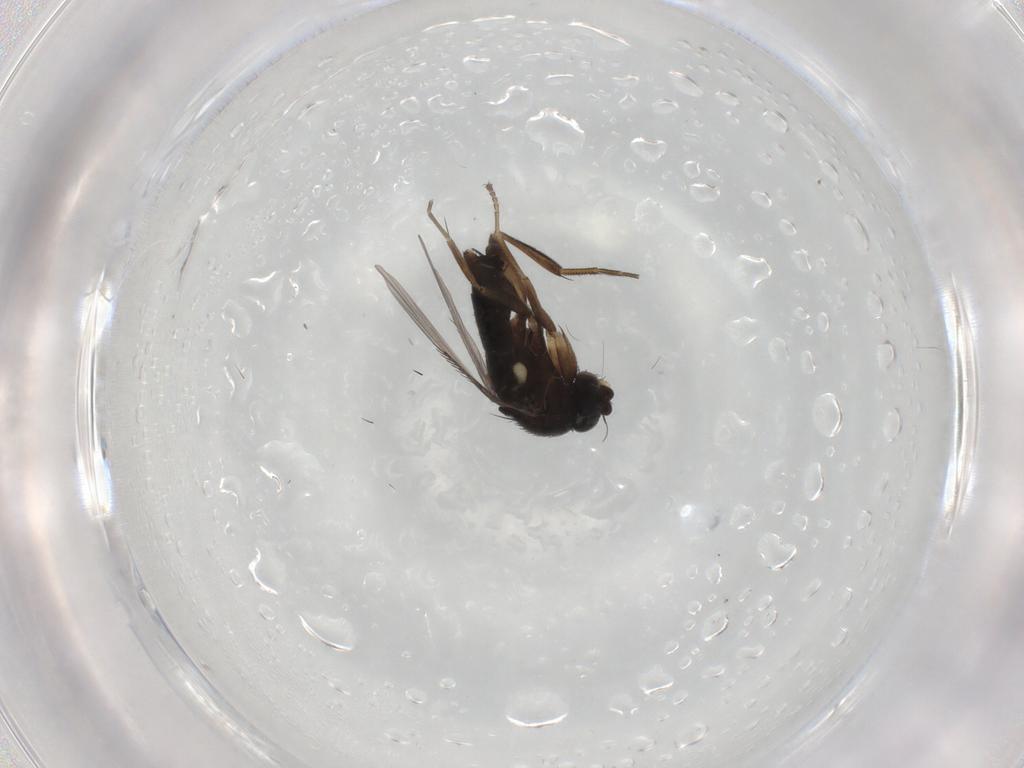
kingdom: Animalia
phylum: Arthropoda
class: Insecta
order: Diptera
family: Phoridae
